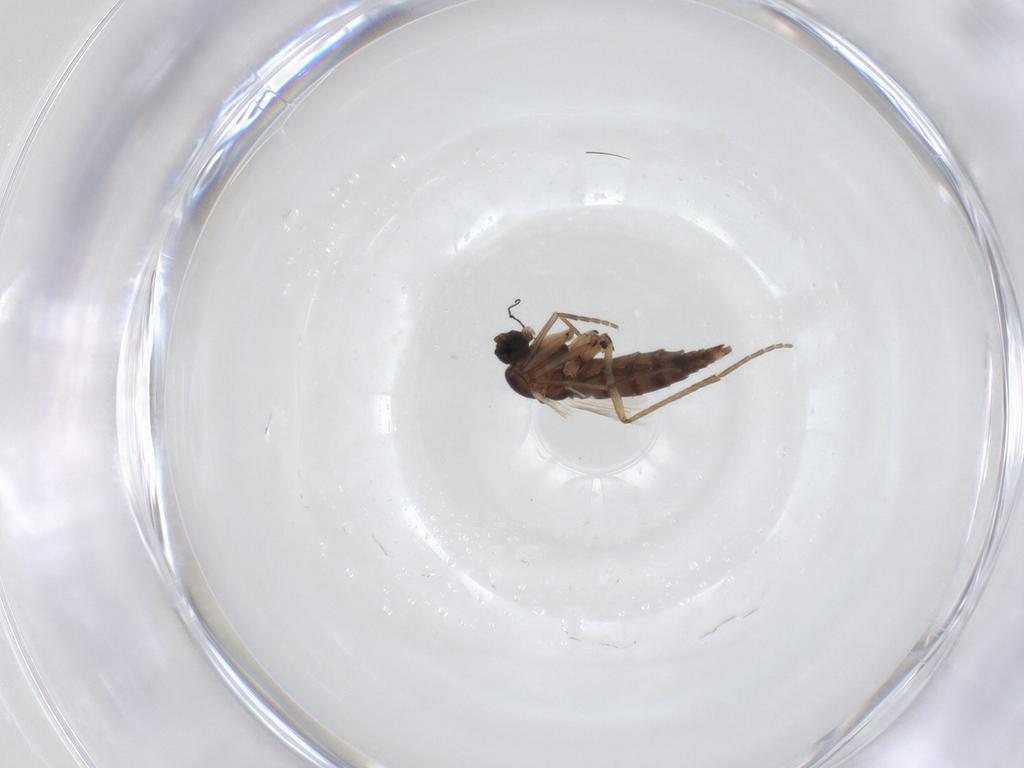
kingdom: Animalia
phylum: Arthropoda
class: Insecta
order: Diptera
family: Sciaridae
